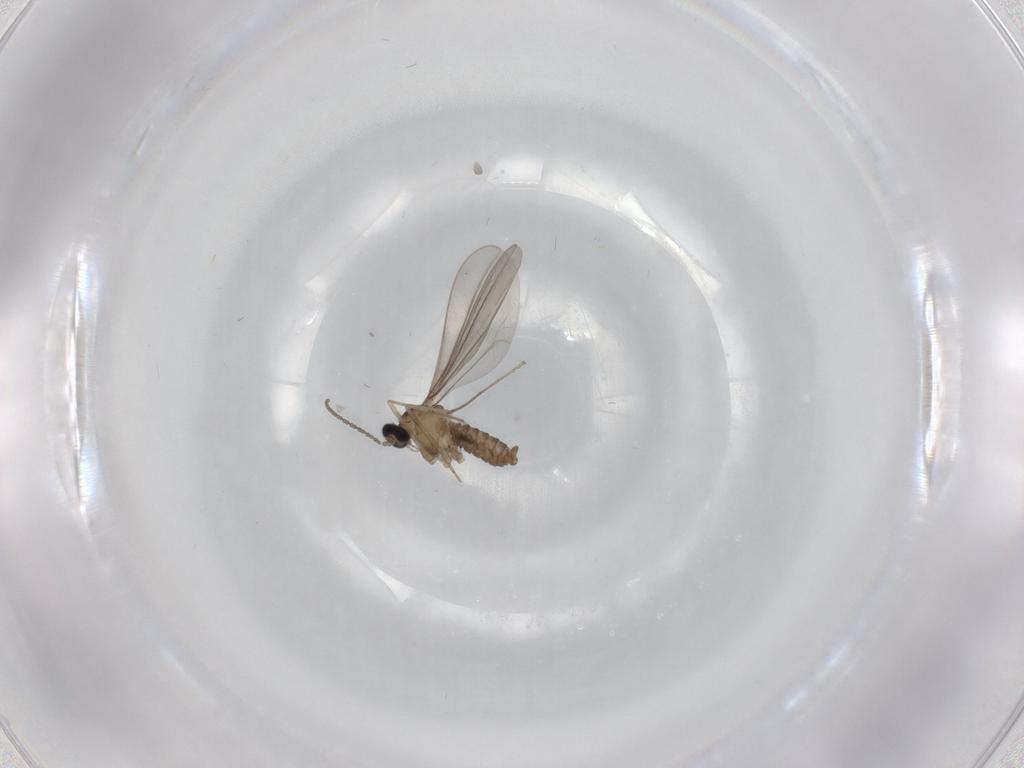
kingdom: Animalia
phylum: Arthropoda
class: Insecta
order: Diptera
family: Cecidomyiidae
